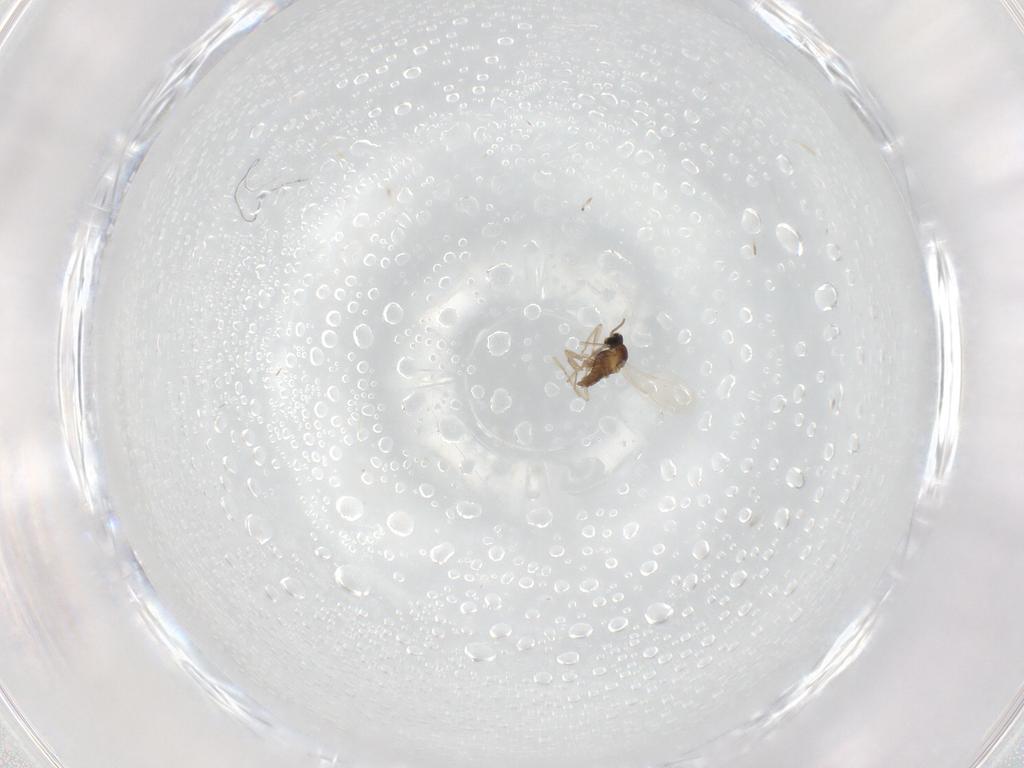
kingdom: Animalia
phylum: Arthropoda
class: Insecta
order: Diptera
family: Cecidomyiidae
